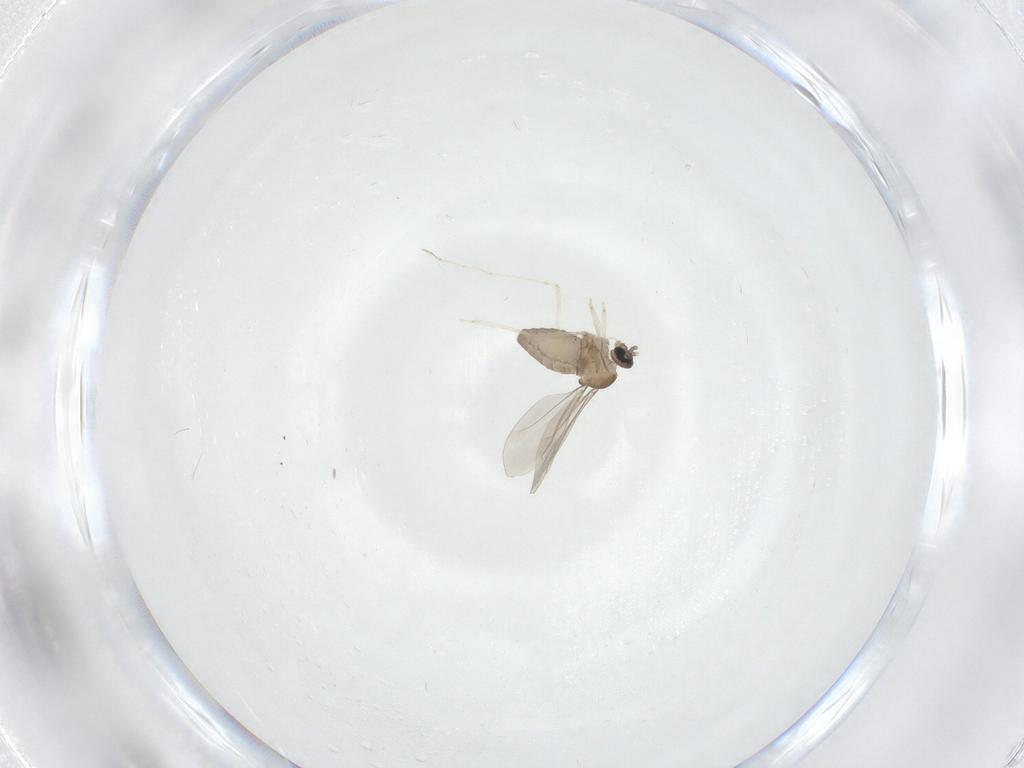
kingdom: Animalia
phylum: Arthropoda
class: Insecta
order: Diptera
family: Cecidomyiidae
